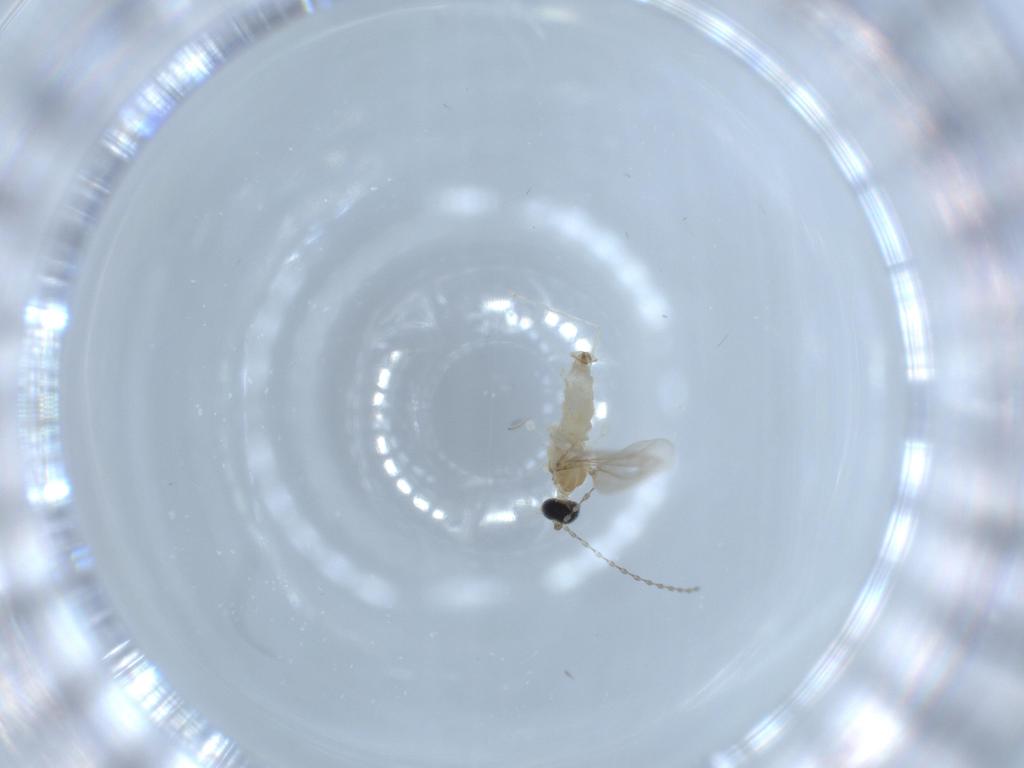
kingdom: Animalia
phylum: Arthropoda
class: Insecta
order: Diptera
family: Cecidomyiidae
